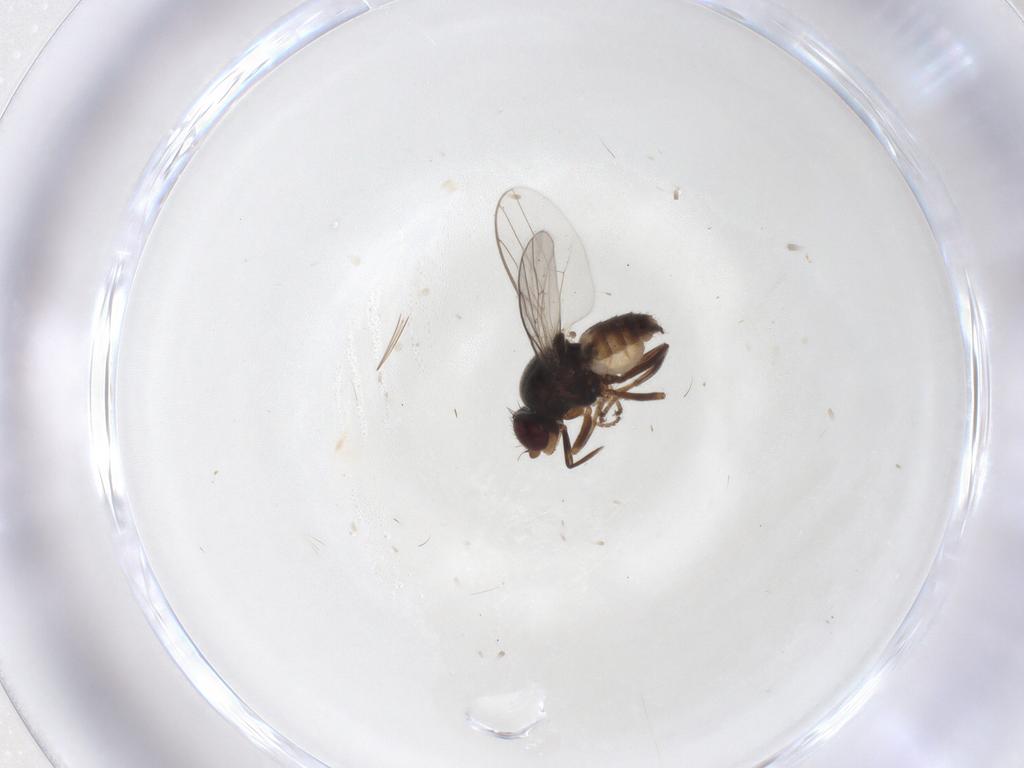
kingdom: Animalia
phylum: Arthropoda
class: Insecta
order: Diptera
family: Chloropidae
